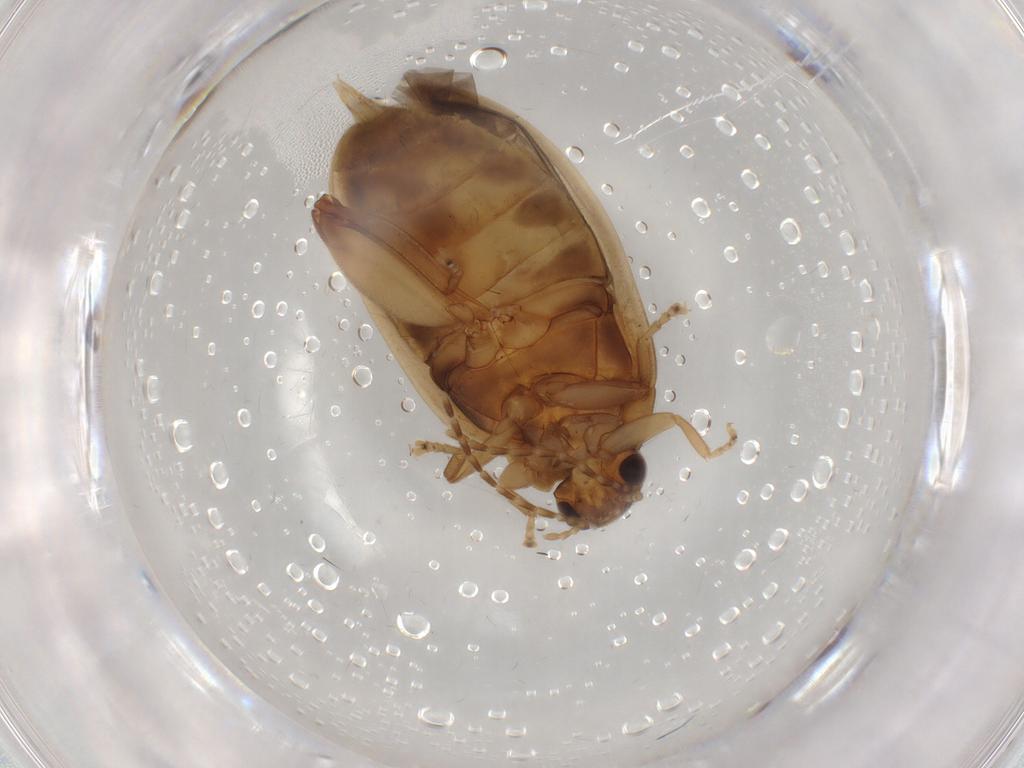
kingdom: Animalia
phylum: Arthropoda
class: Insecta
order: Coleoptera
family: Scirtidae
